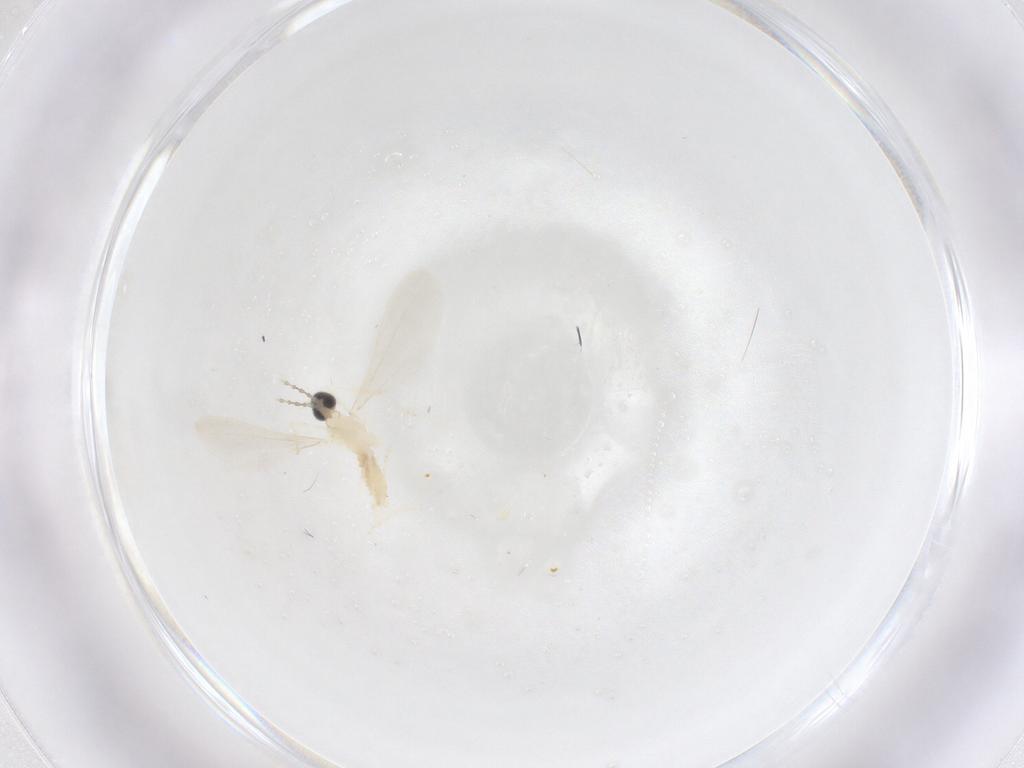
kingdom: Animalia
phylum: Arthropoda
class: Insecta
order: Diptera
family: Cecidomyiidae
